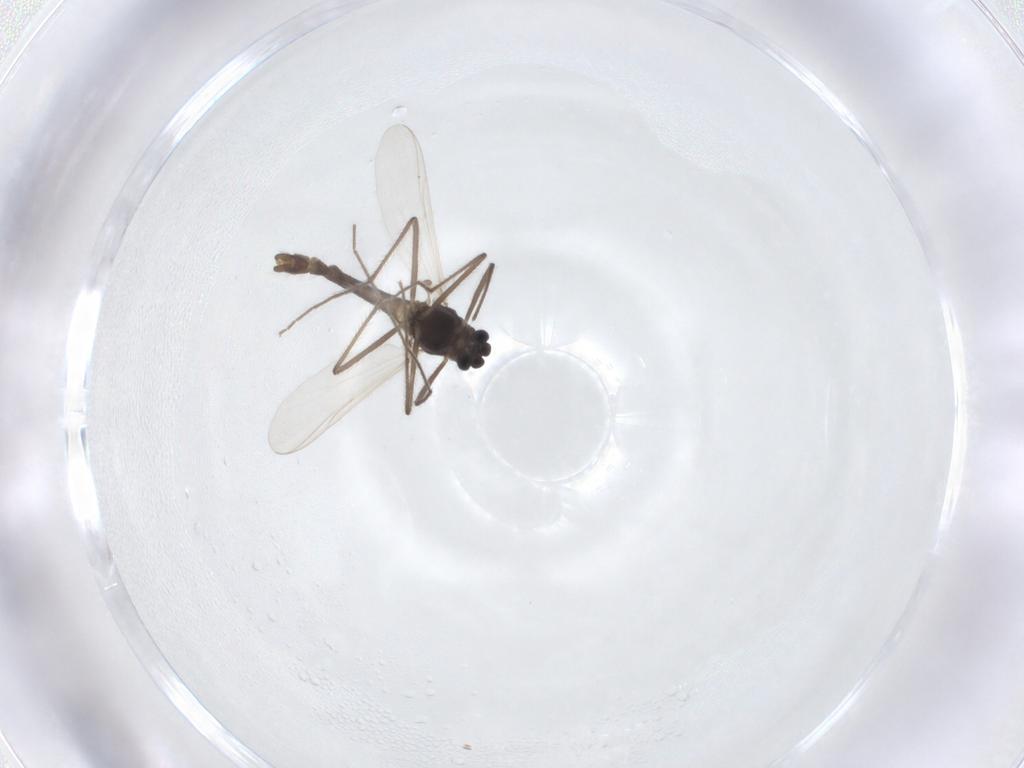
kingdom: Animalia
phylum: Arthropoda
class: Insecta
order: Diptera
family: Chironomidae
